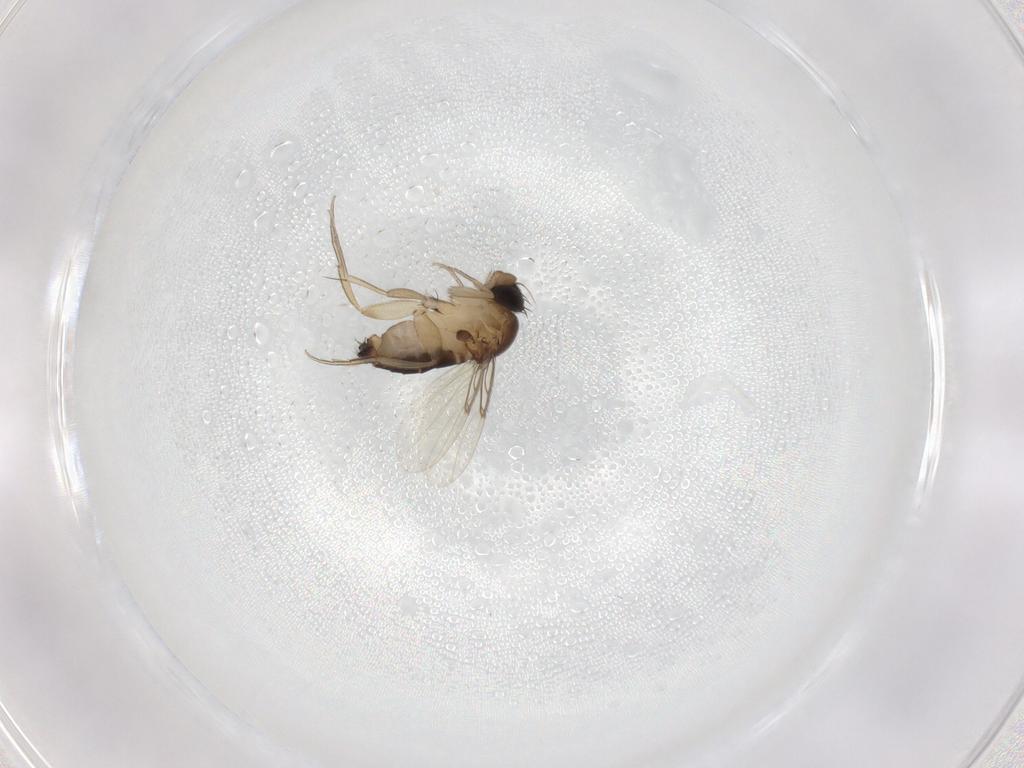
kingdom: Animalia
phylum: Arthropoda
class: Insecta
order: Diptera
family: Phoridae
